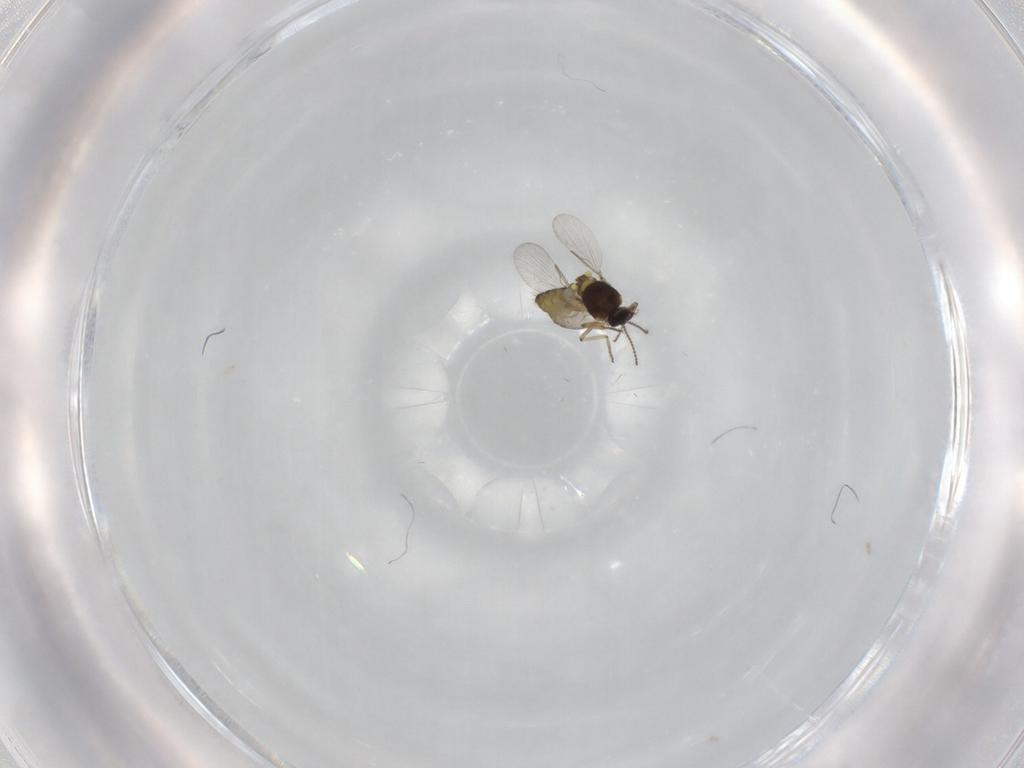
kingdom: Animalia
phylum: Arthropoda
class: Insecta
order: Diptera
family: Ceratopogonidae
